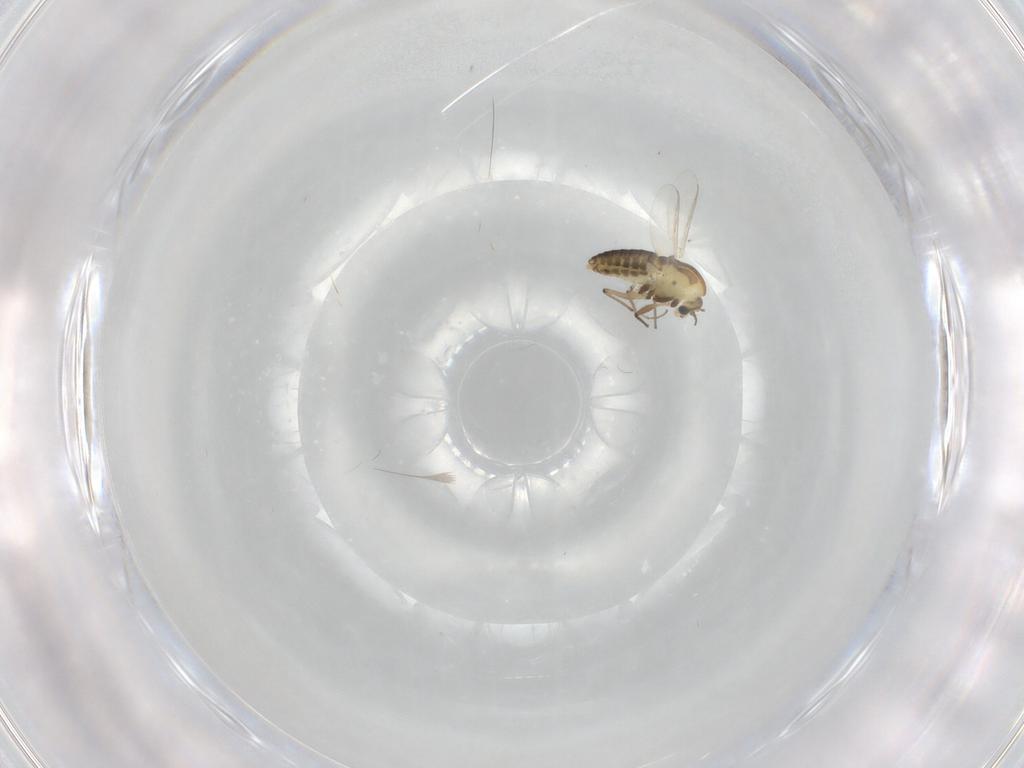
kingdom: Animalia
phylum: Arthropoda
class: Insecta
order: Diptera
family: Chironomidae
